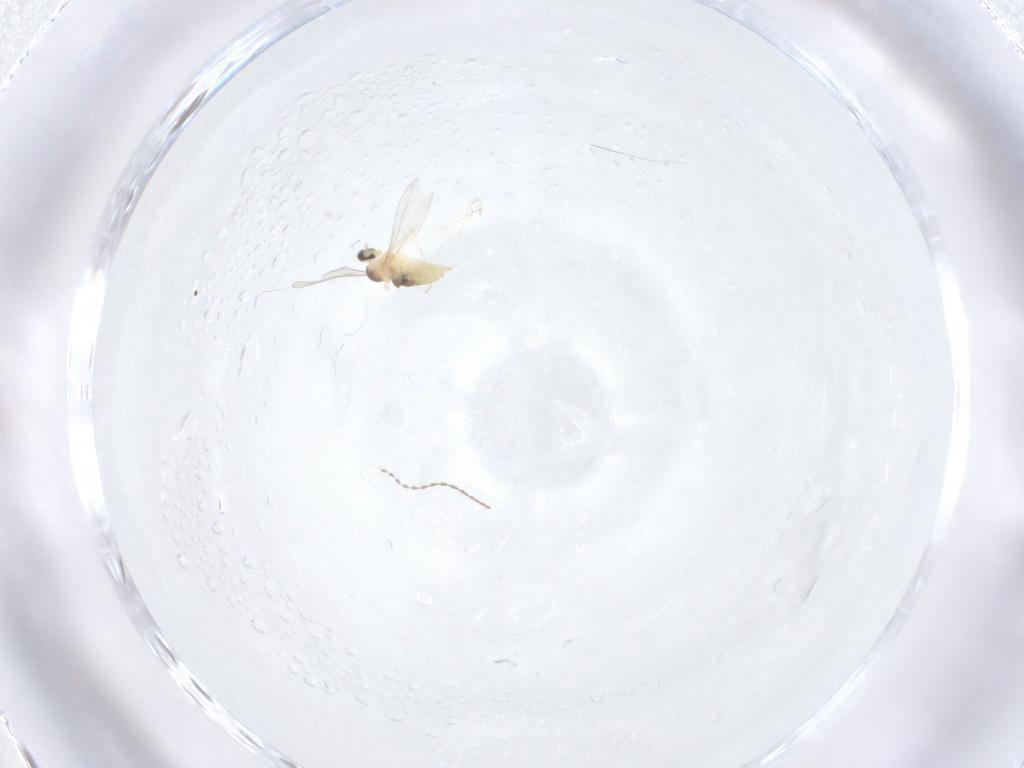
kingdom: Animalia
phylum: Arthropoda
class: Insecta
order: Diptera
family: Cecidomyiidae
